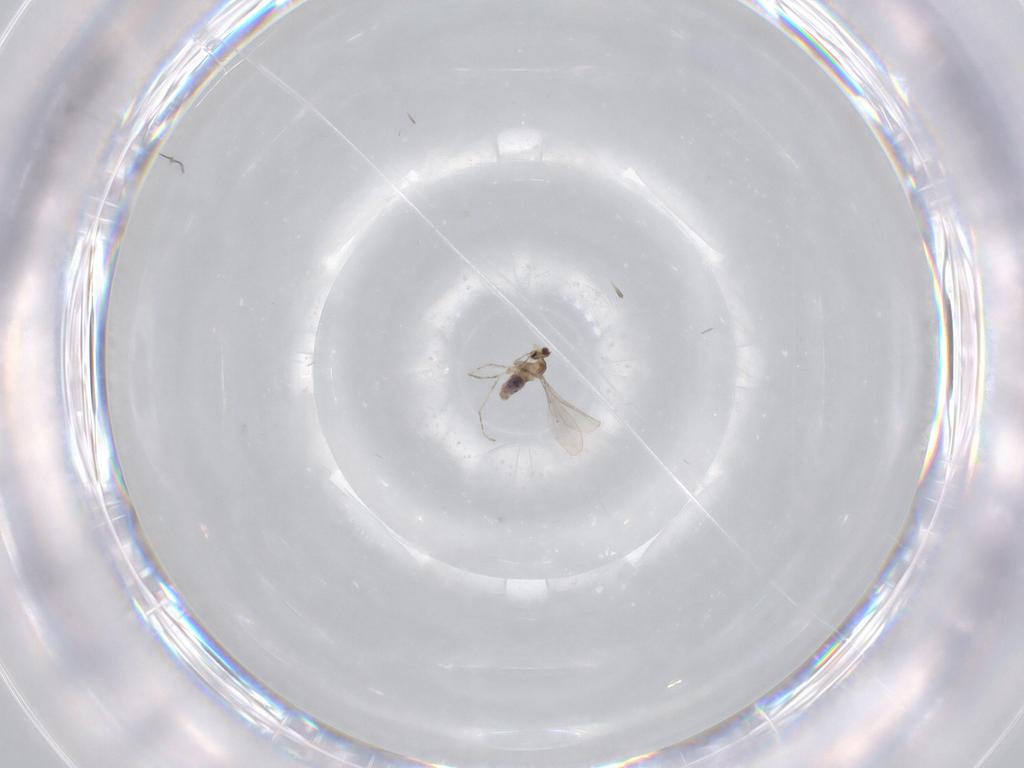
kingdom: Animalia
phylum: Arthropoda
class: Insecta
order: Diptera
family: Cecidomyiidae
